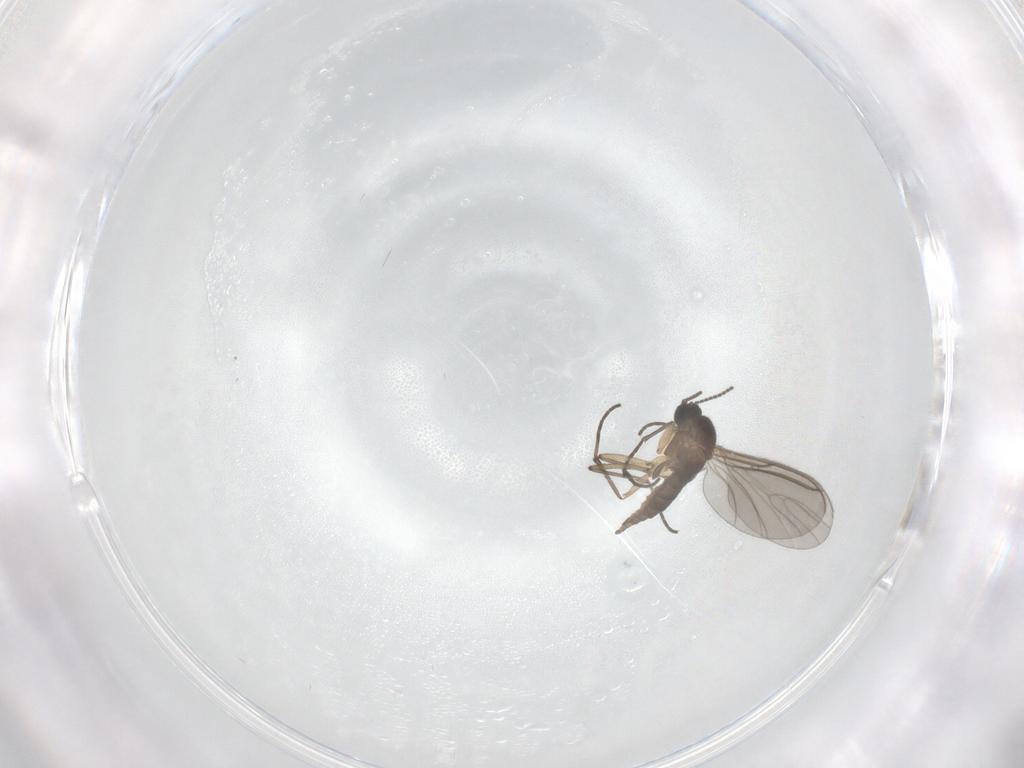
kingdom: Animalia
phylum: Arthropoda
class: Insecta
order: Diptera
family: Sciaridae
